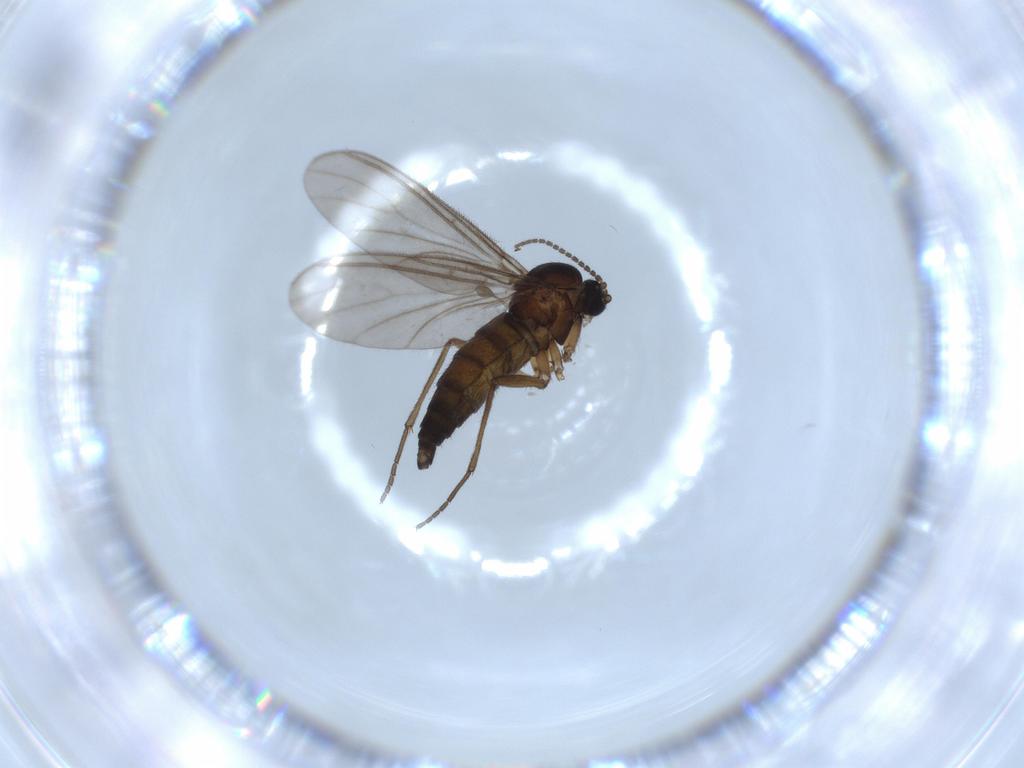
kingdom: Animalia
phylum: Arthropoda
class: Insecta
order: Diptera
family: Sciaridae
